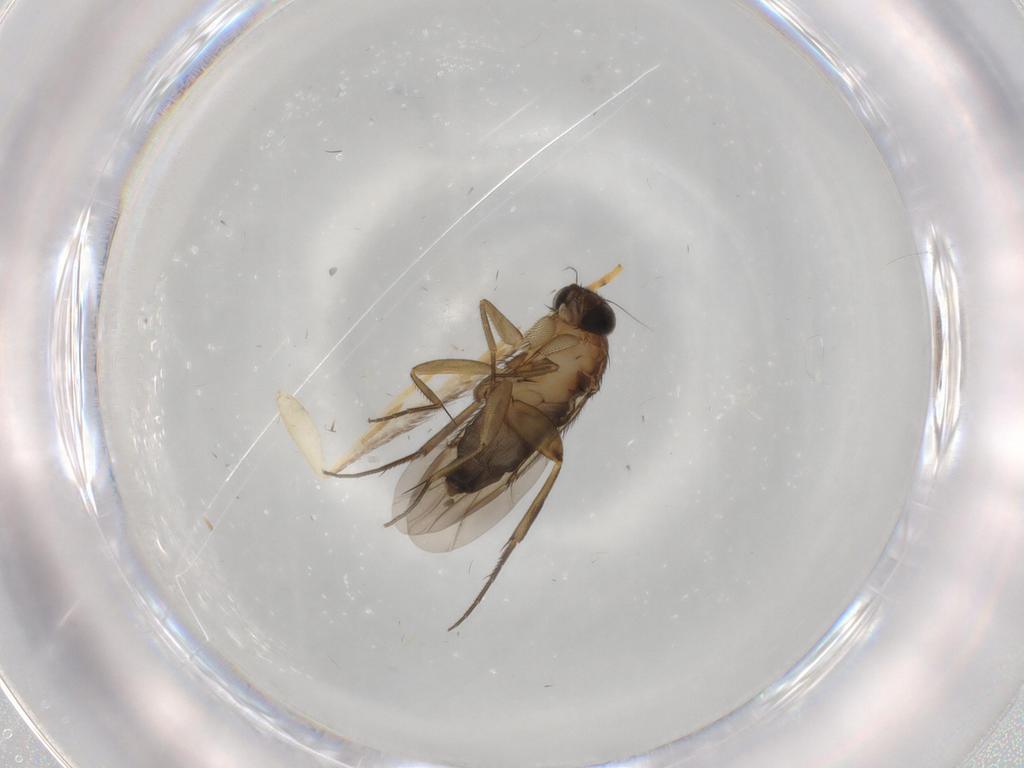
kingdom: Animalia
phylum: Arthropoda
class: Insecta
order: Diptera
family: Phoridae
